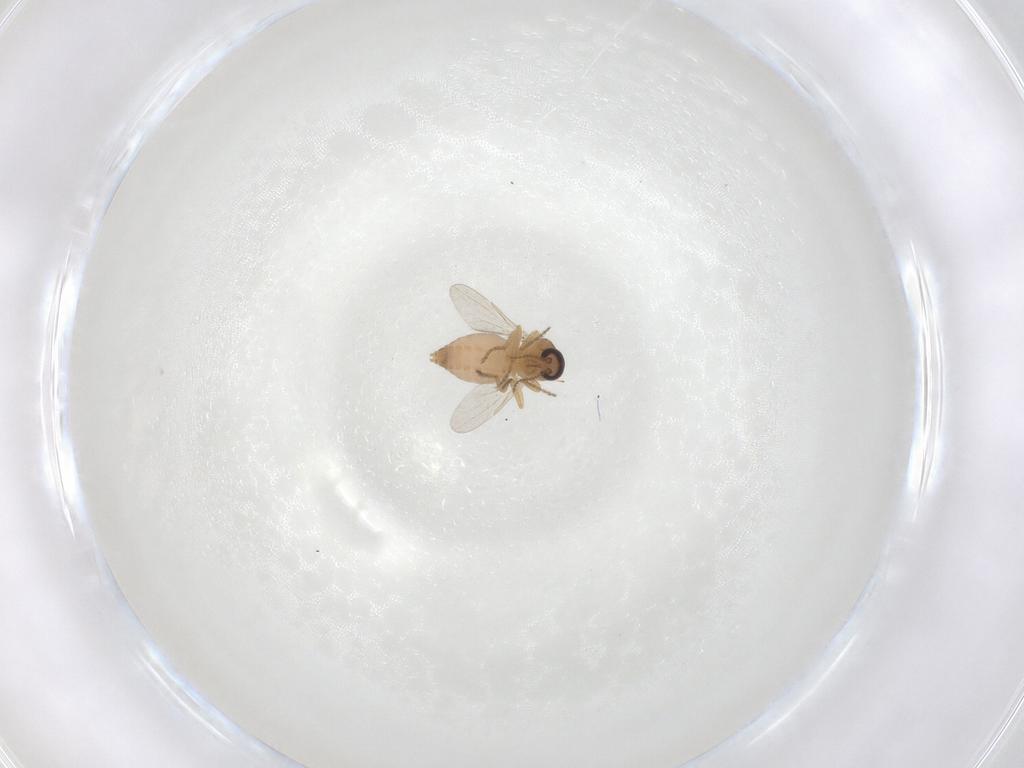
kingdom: Animalia
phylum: Arthropoda
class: Insecta
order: Diptera
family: Ceratopogonidae
